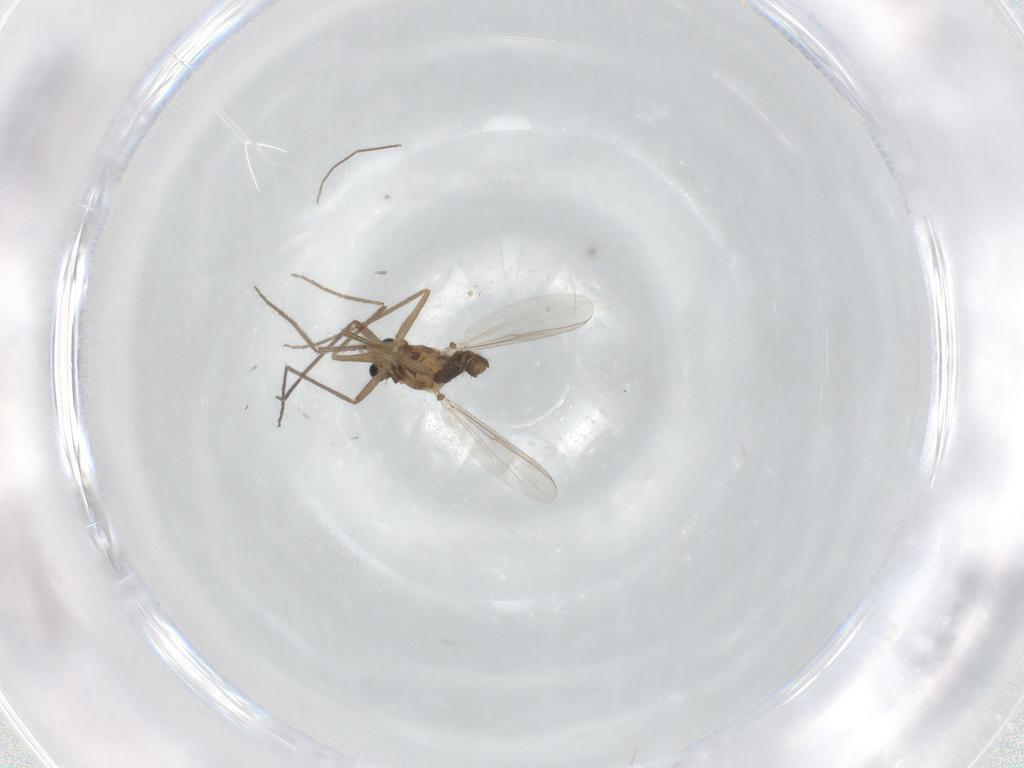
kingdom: Animalia
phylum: Arthropoda
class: Insecta
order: Diptera
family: Chironomidae
